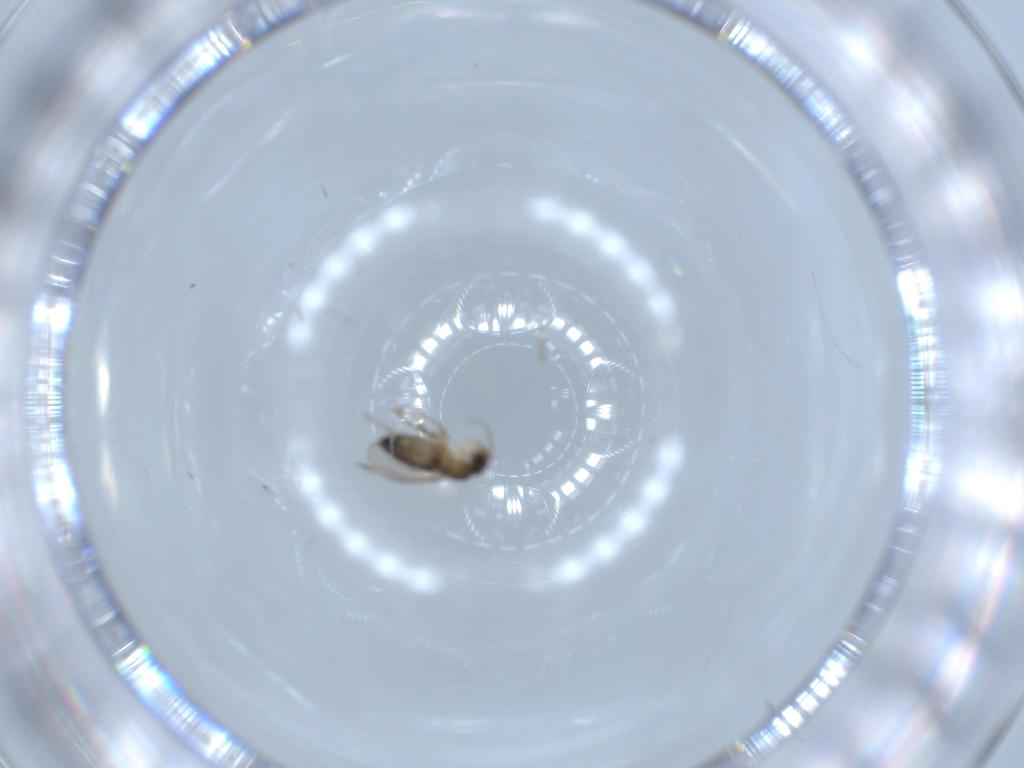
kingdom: Animalia
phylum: Arthropoda
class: Insecta
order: Diptera
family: Phoridae
